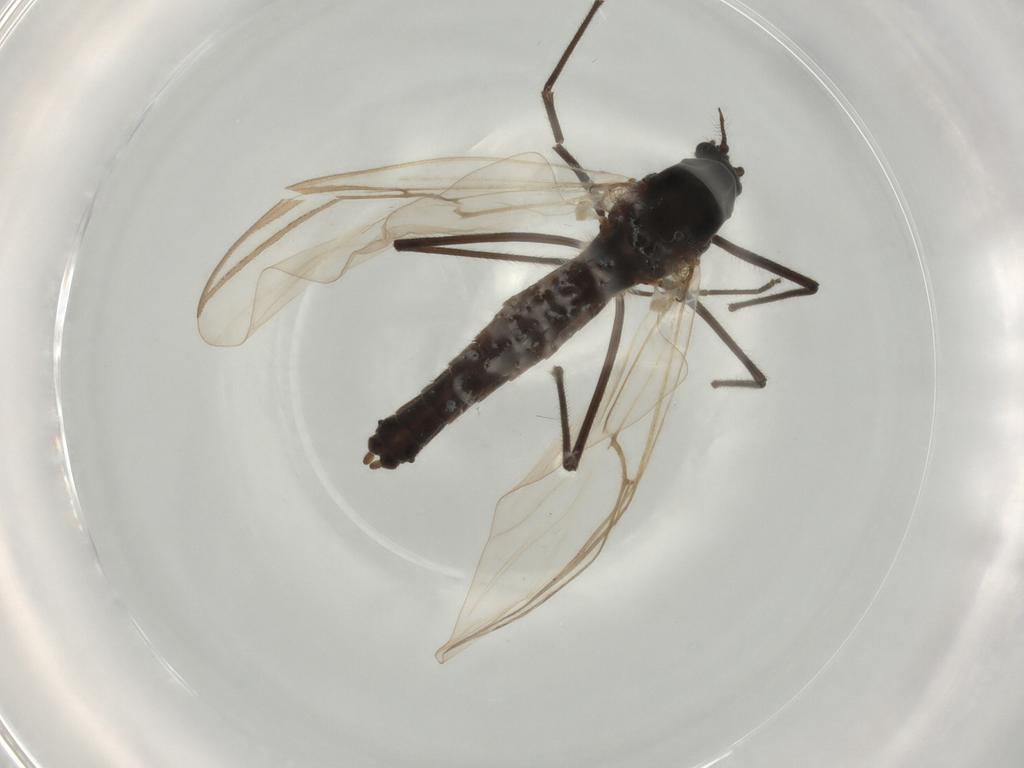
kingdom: Animalia
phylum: Arthropoda
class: Insecta
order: Diptera
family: Chironomidae
